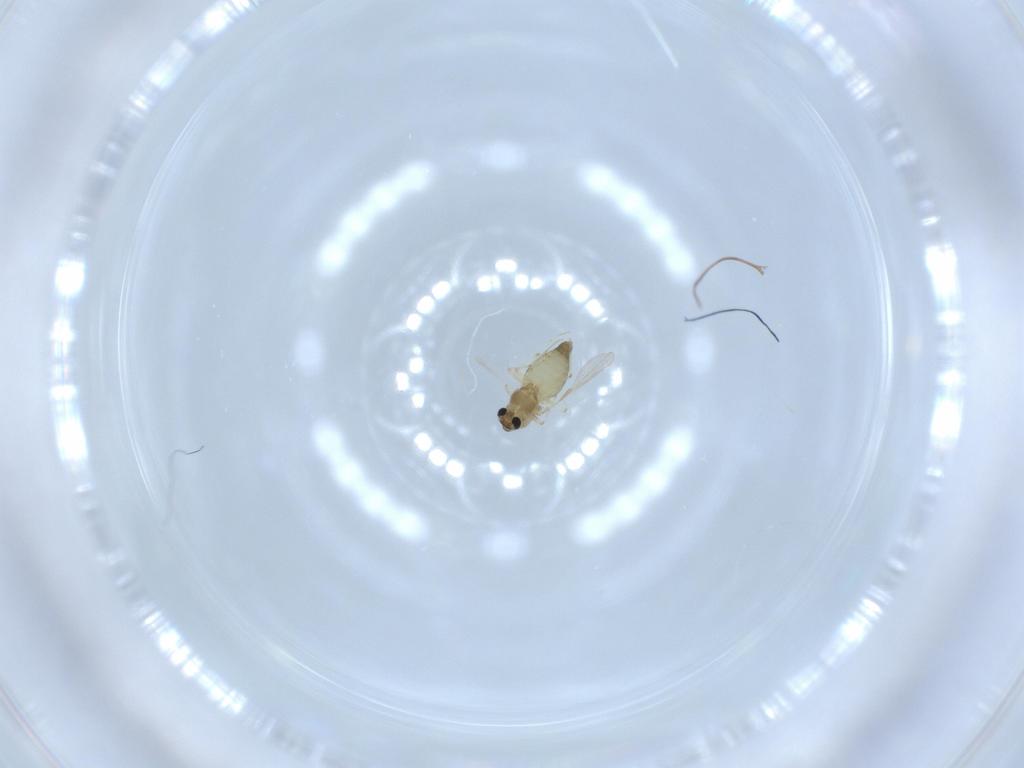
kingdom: Animalia
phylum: Arthropoda
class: Insecta
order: Diptera
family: Chironomidae
